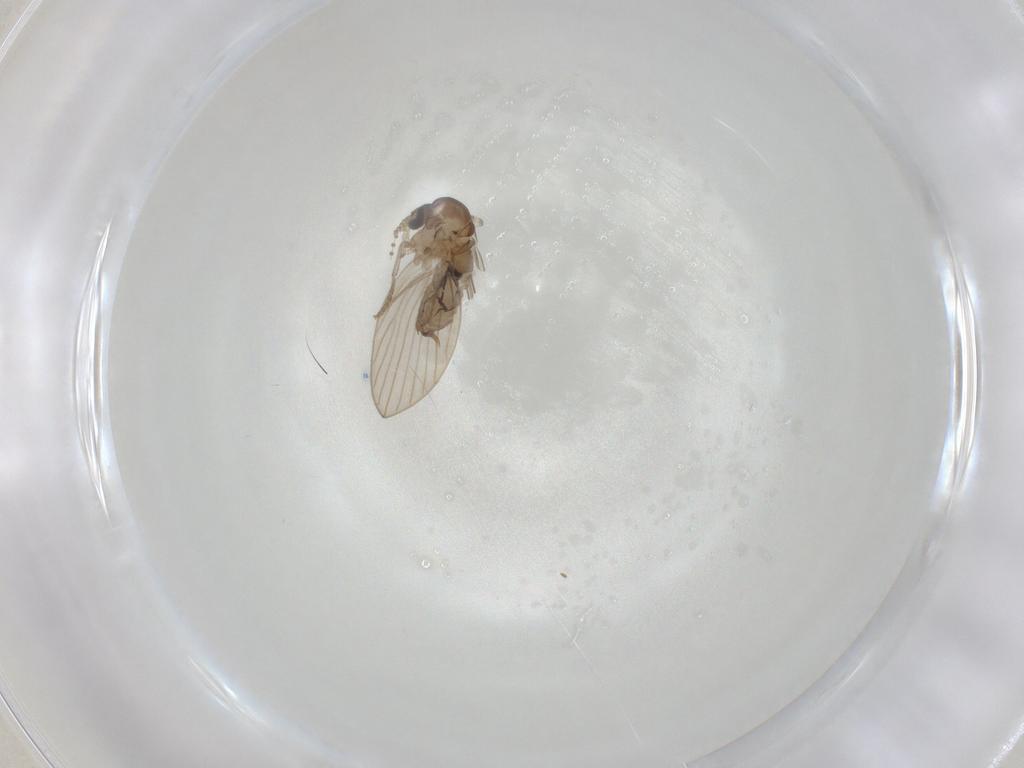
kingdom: Animalia
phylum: Arthropoda
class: Insecta
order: Diptera
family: Psychodidae
